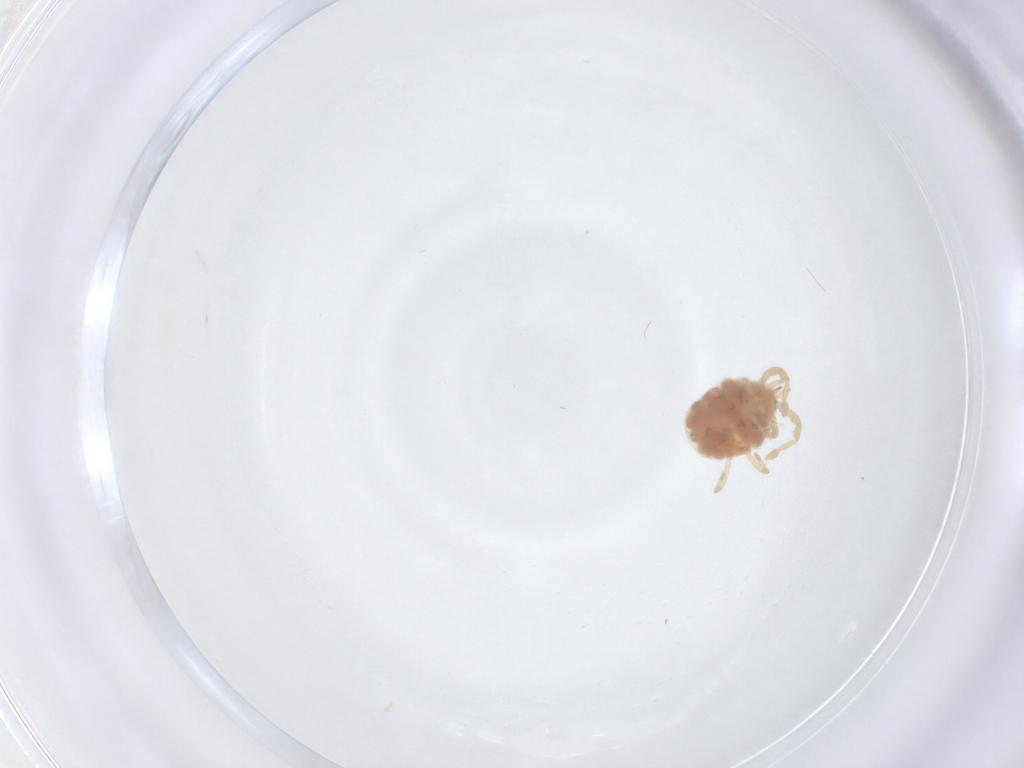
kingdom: Animalia
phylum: Arthropoda
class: Arachnida
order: Trombidiformes
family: Erythraeidae
